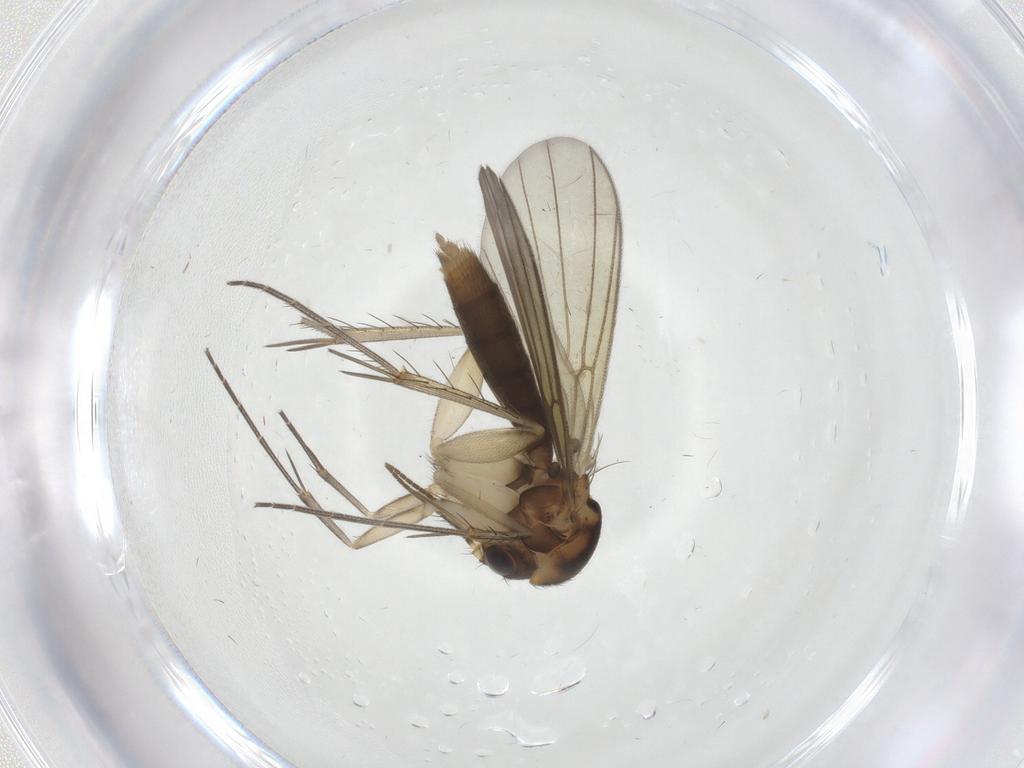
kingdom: Animalia
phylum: Arthropoda
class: Insecta
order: Diptera
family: Mycetophilidae
